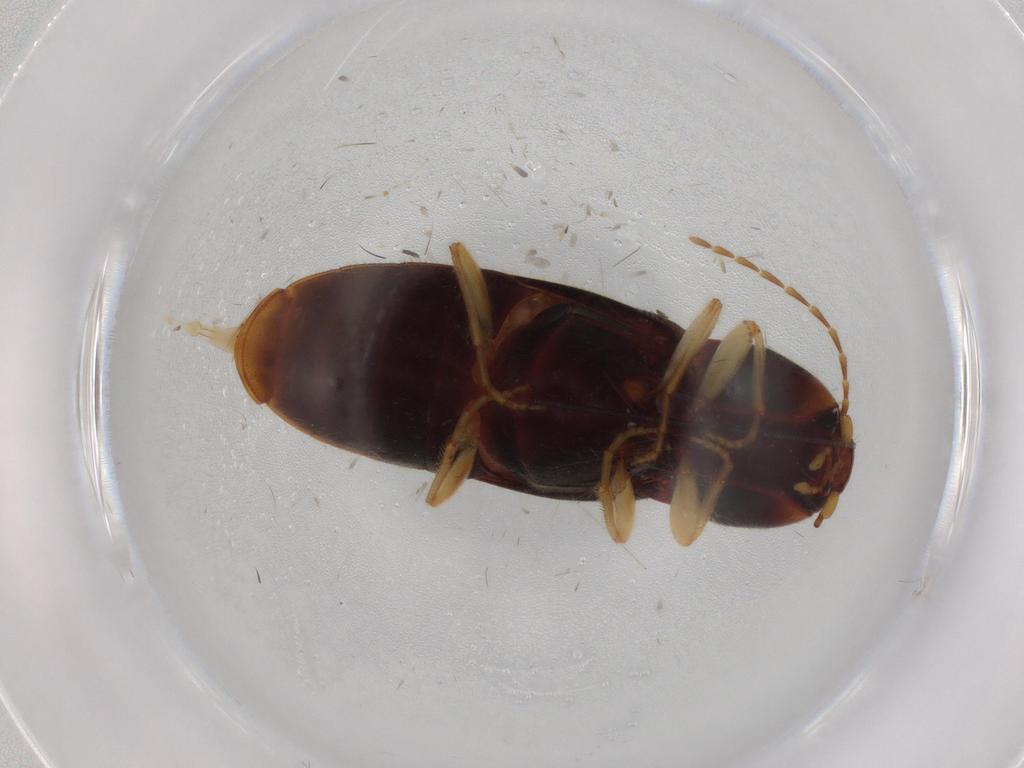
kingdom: Animalia
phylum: Arthropoda
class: Insecta
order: Coleoptera
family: Elateridae
